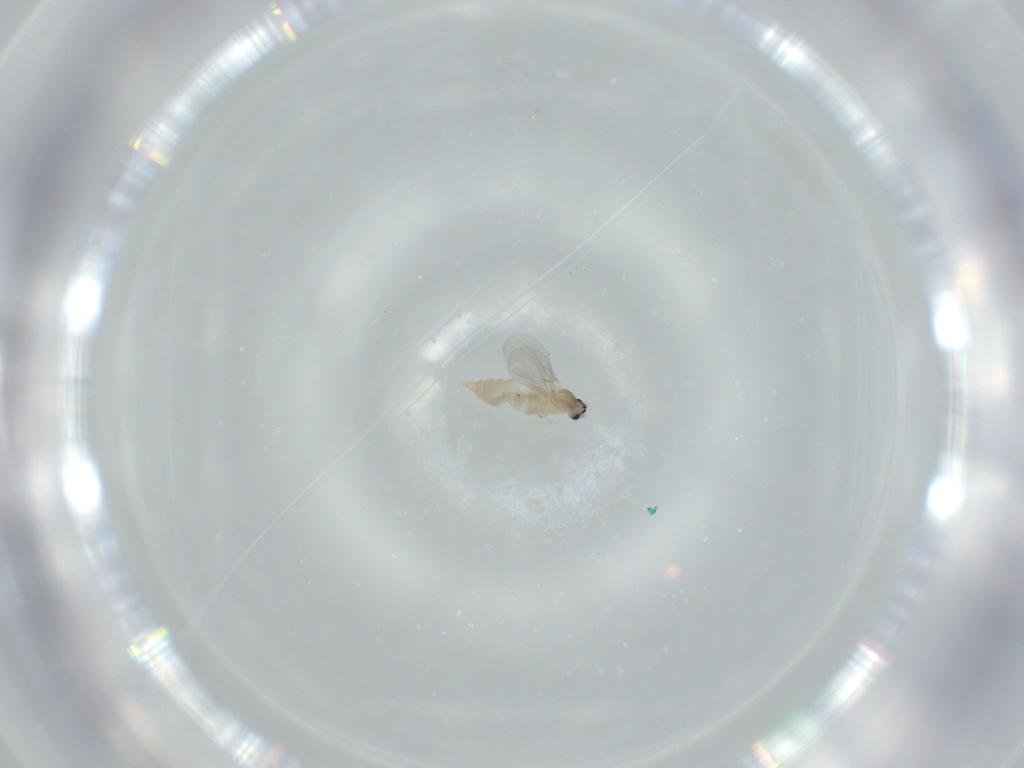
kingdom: Animalia
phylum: Arthropoda
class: Insecta
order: Diptera
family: Cecidomyiidae
